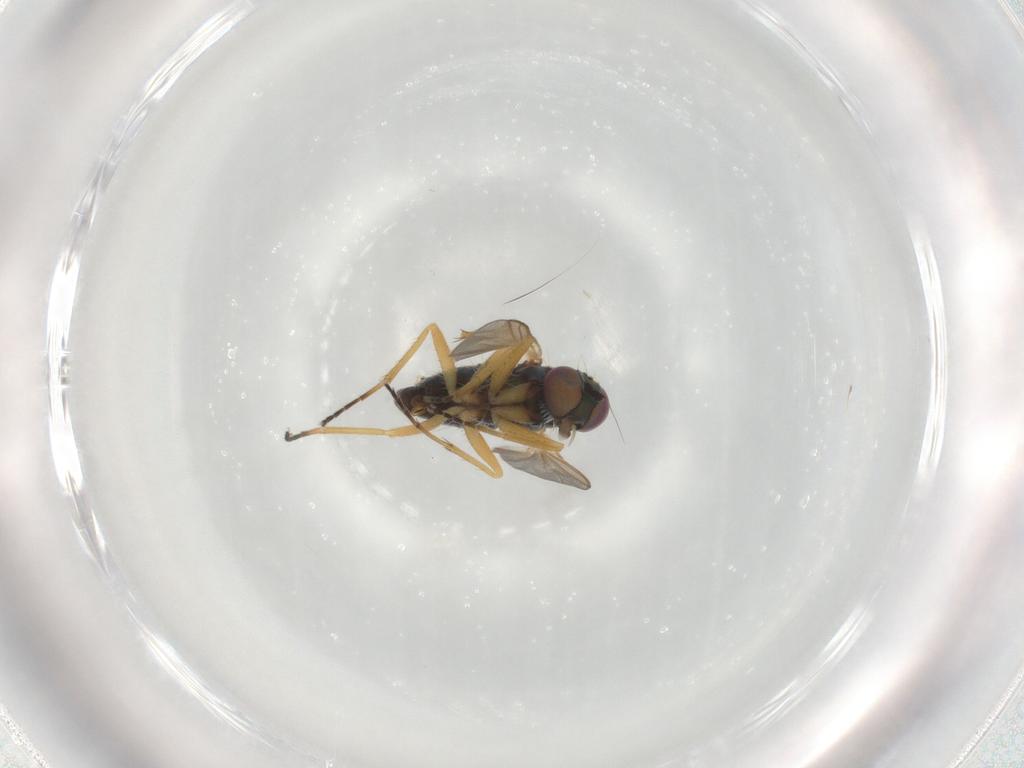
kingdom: Animalia
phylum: Arthropoda
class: Insecta
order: Diptera
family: Dolichopodidae
